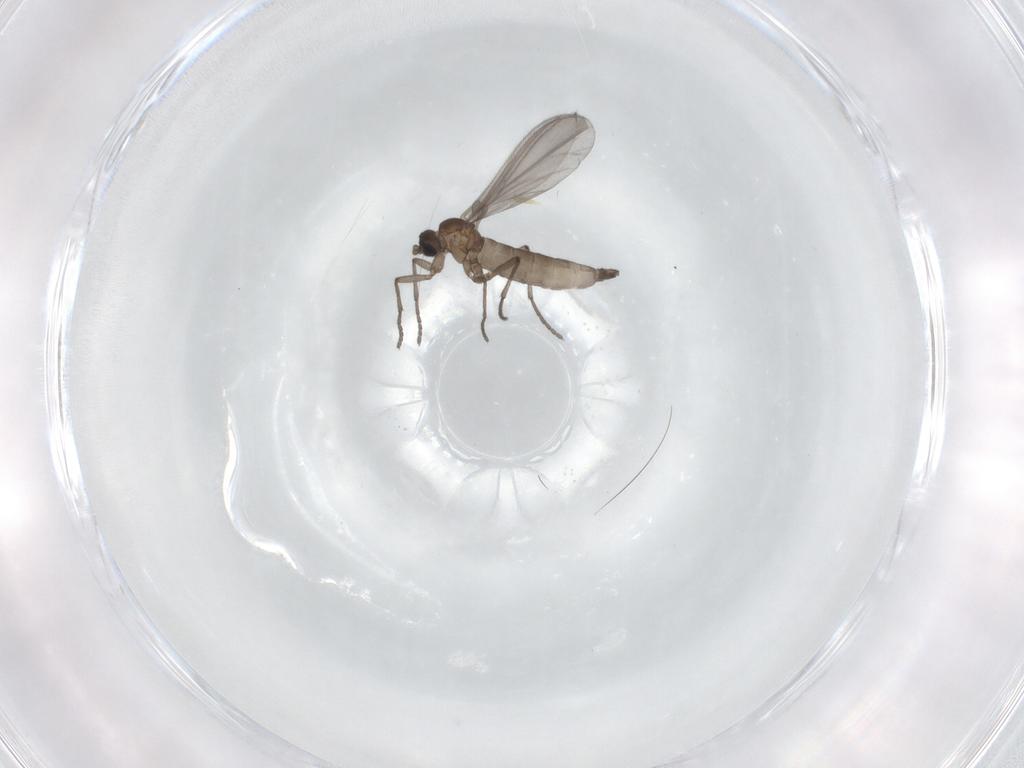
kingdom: Animalia
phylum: Arthropoda
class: Insecta
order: Diptera
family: Sciaridae
